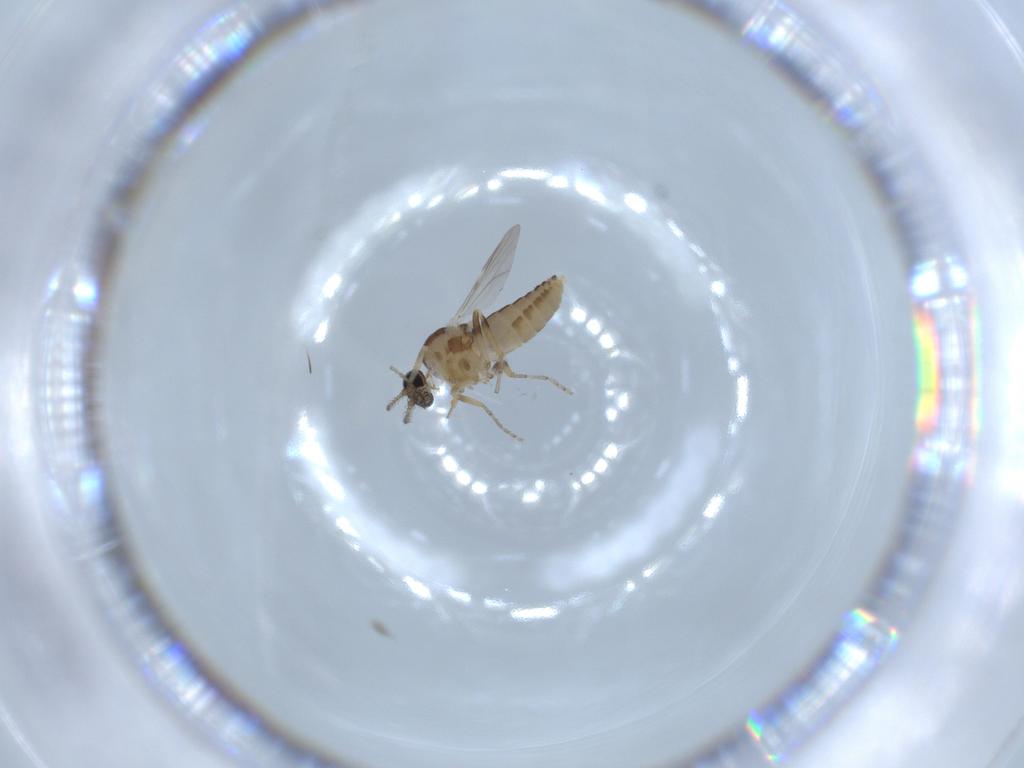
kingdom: Animalia
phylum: Arthropoda
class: Insecta
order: Diptera
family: Ceratopogonidae
